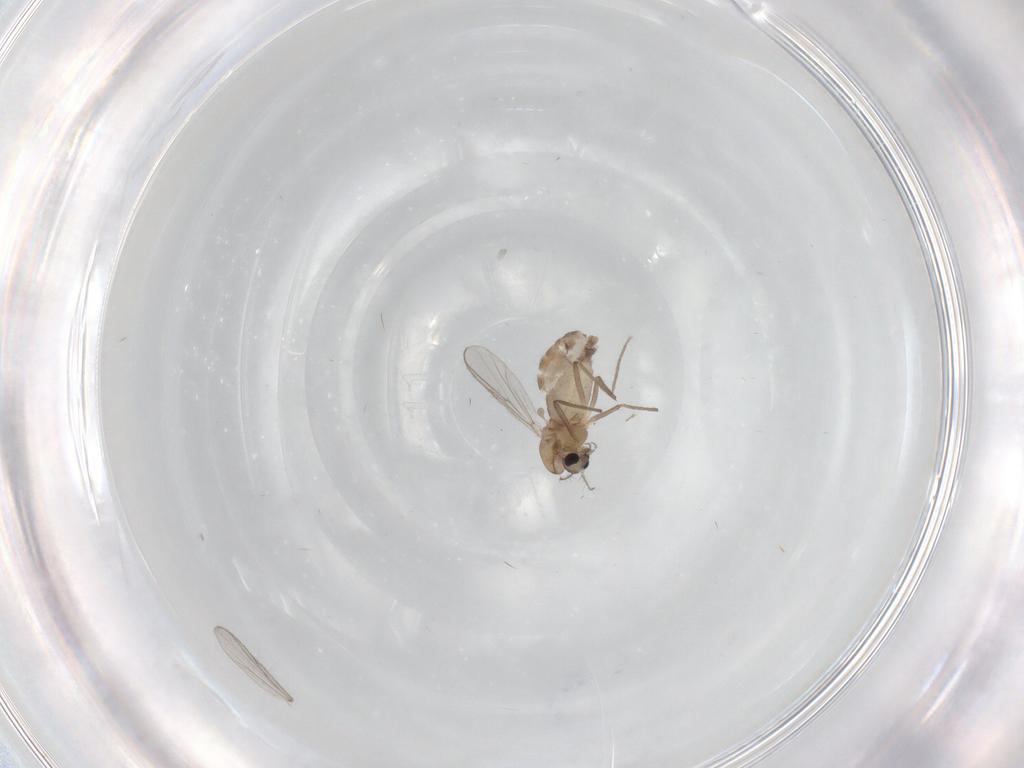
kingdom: Animalia
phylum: Arthropoda
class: Insecta
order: Diptera
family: Chironomidae
